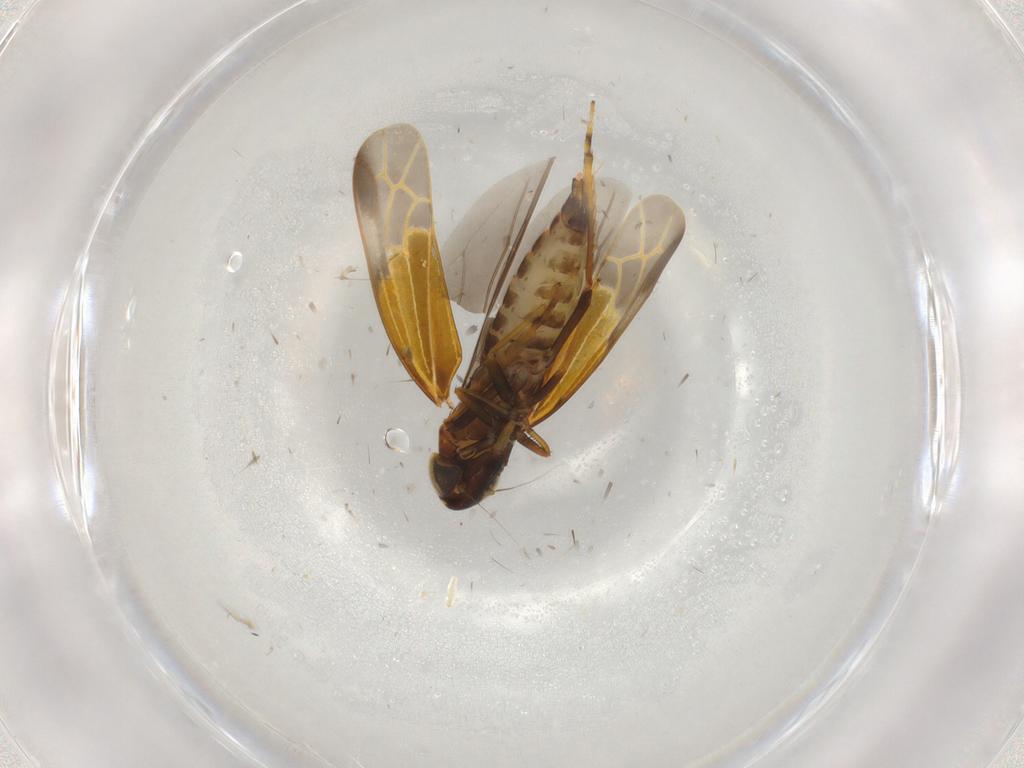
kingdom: Animalia
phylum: Arthropoda
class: Insecta
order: Hemiptera
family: Cicadellidae
